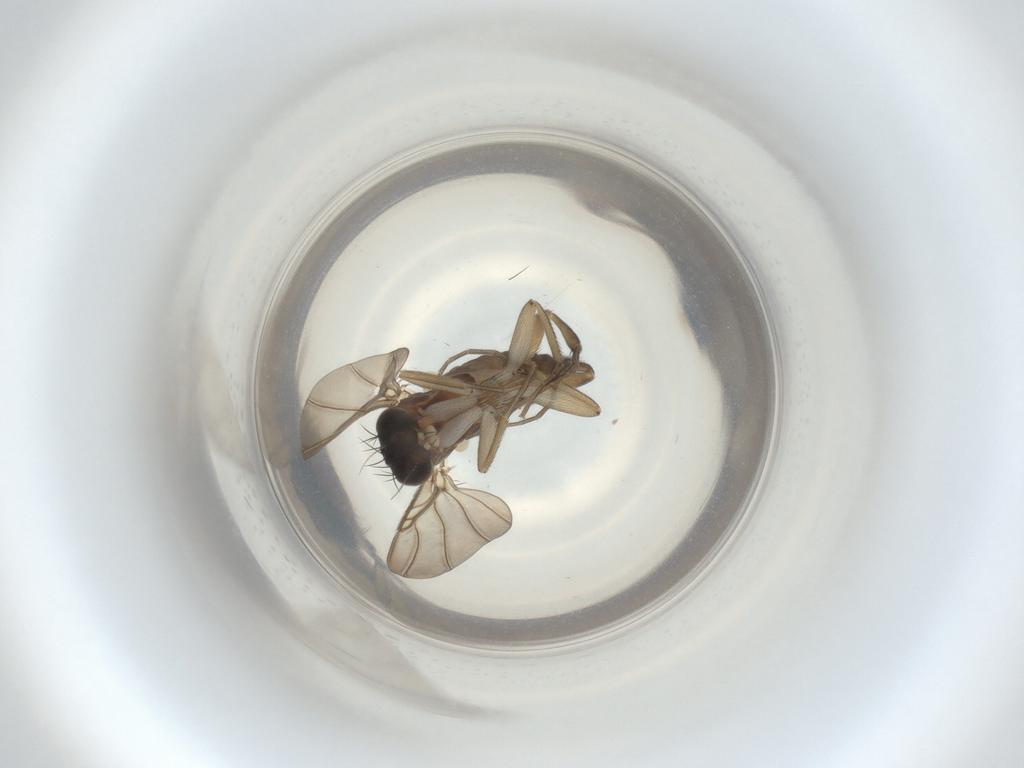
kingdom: Animalia
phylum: Arthropoda
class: Insecta
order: Diptera
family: Phoridae
